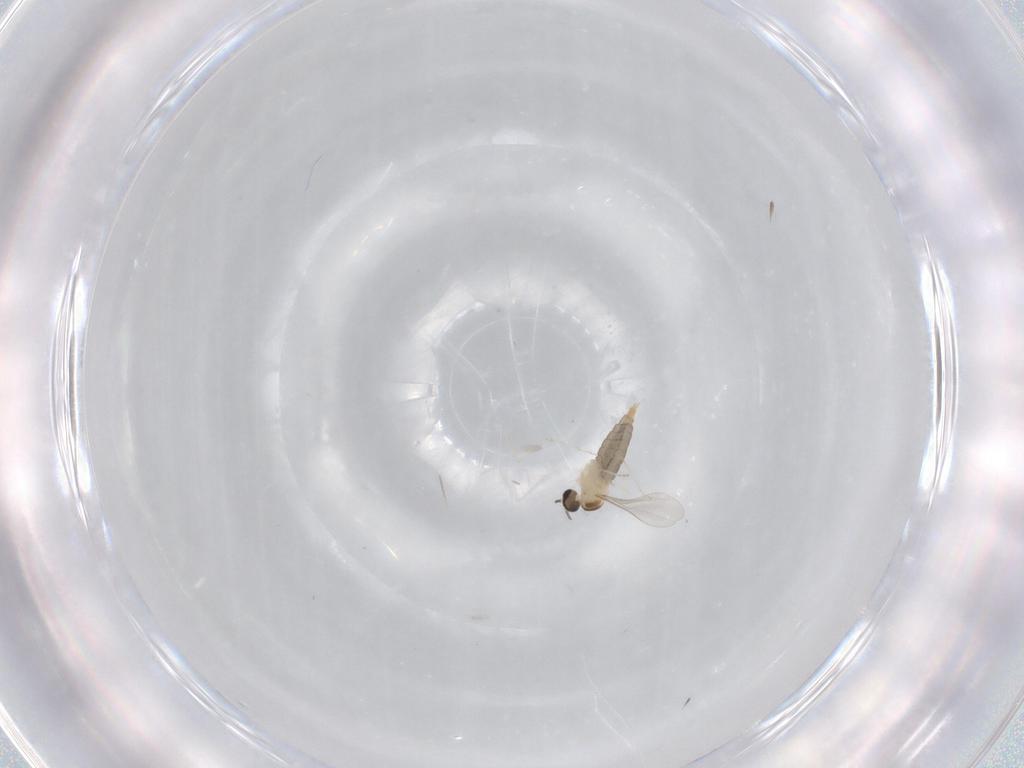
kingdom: Animalia
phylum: Arthropoda
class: Insecta
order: Diptera
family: Cecidomyiidae
